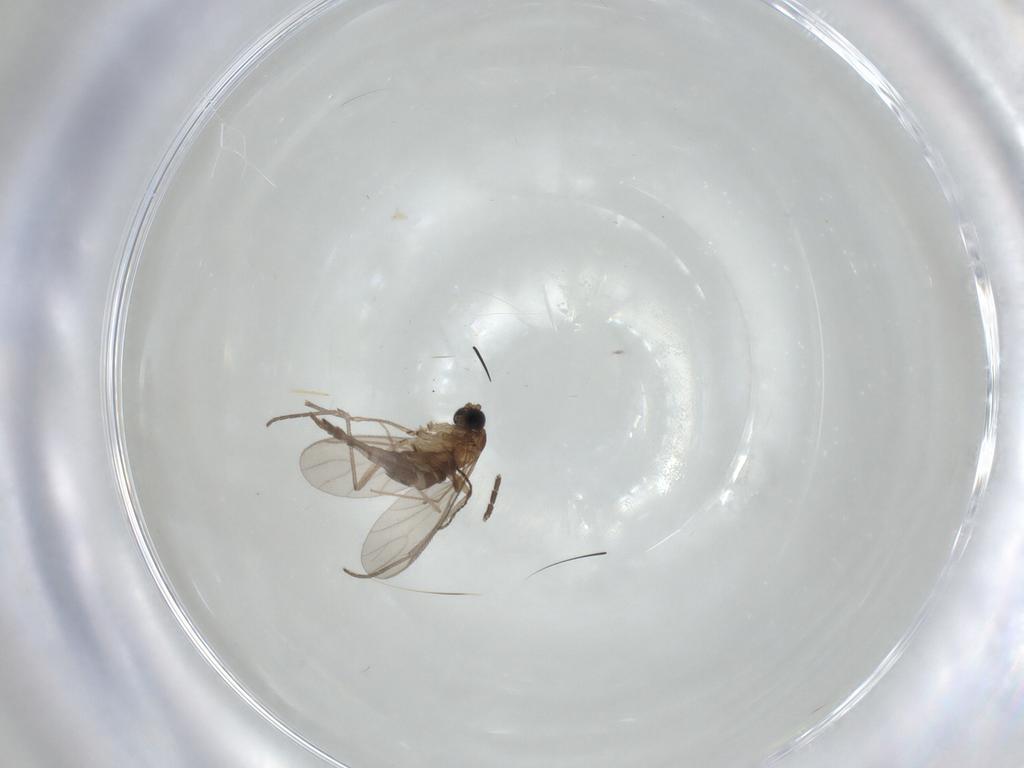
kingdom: Animalia
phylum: Arthropoda
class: Insecta
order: Diptera
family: Sciaridae
